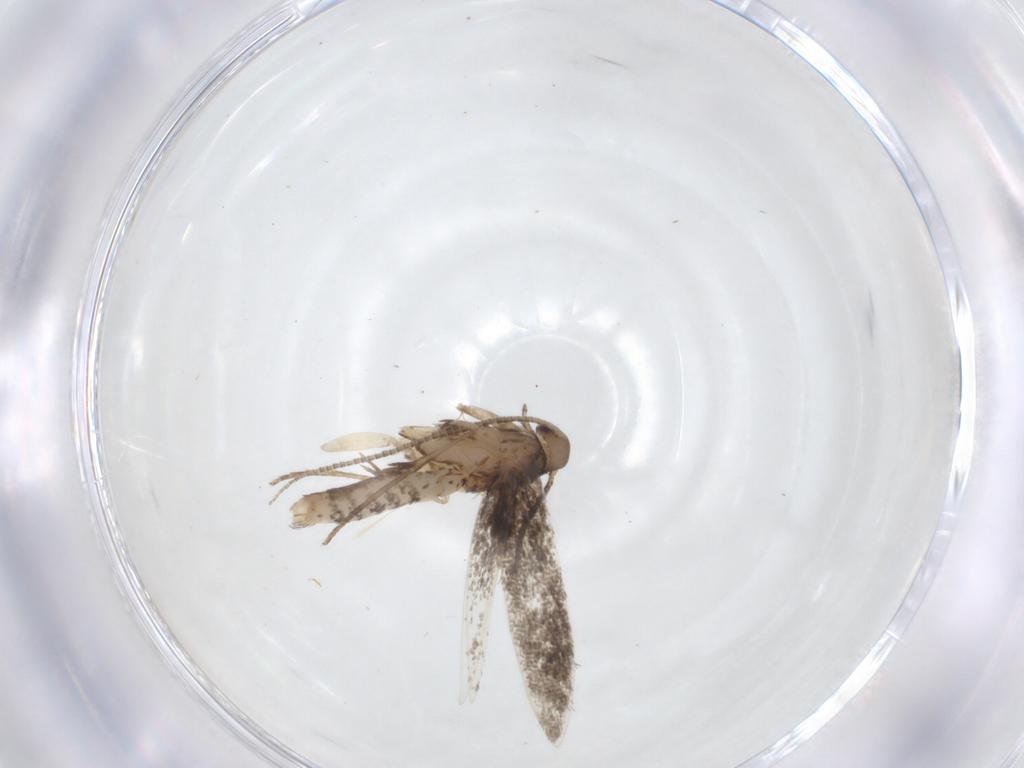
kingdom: Animalia
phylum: Arthropoda
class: Insecta
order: Lepidoptera
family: Gracillariidae
